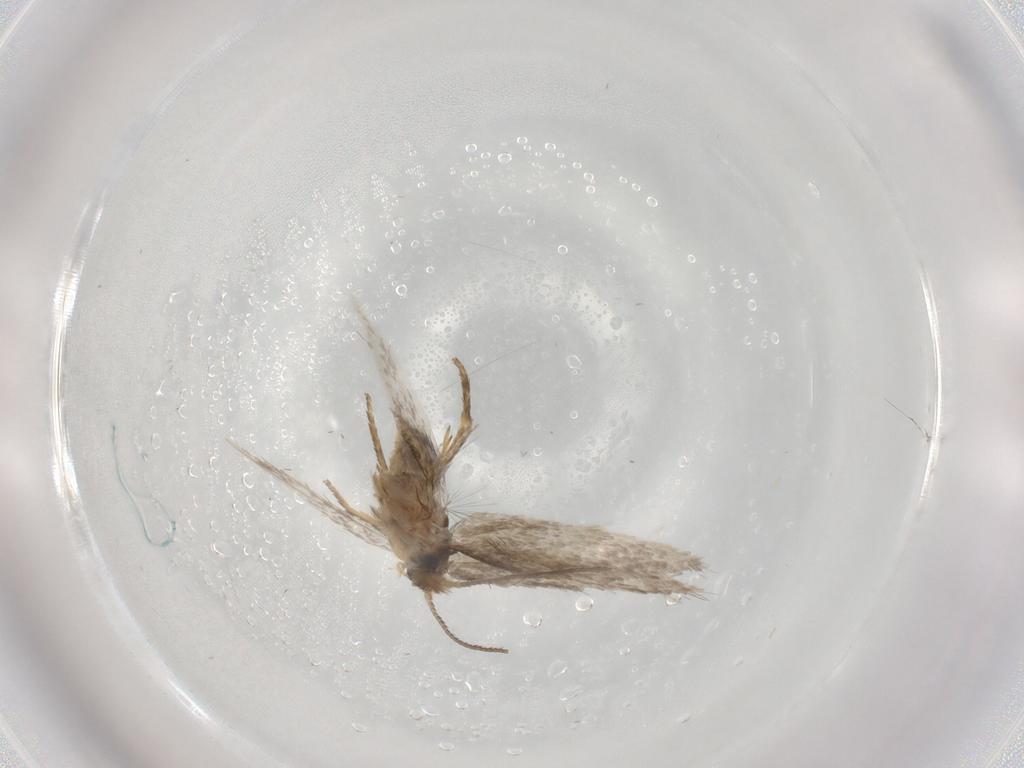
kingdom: Animalia
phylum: Arthropoda
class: Insecta
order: Lepidoptera
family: Nepticulidae
